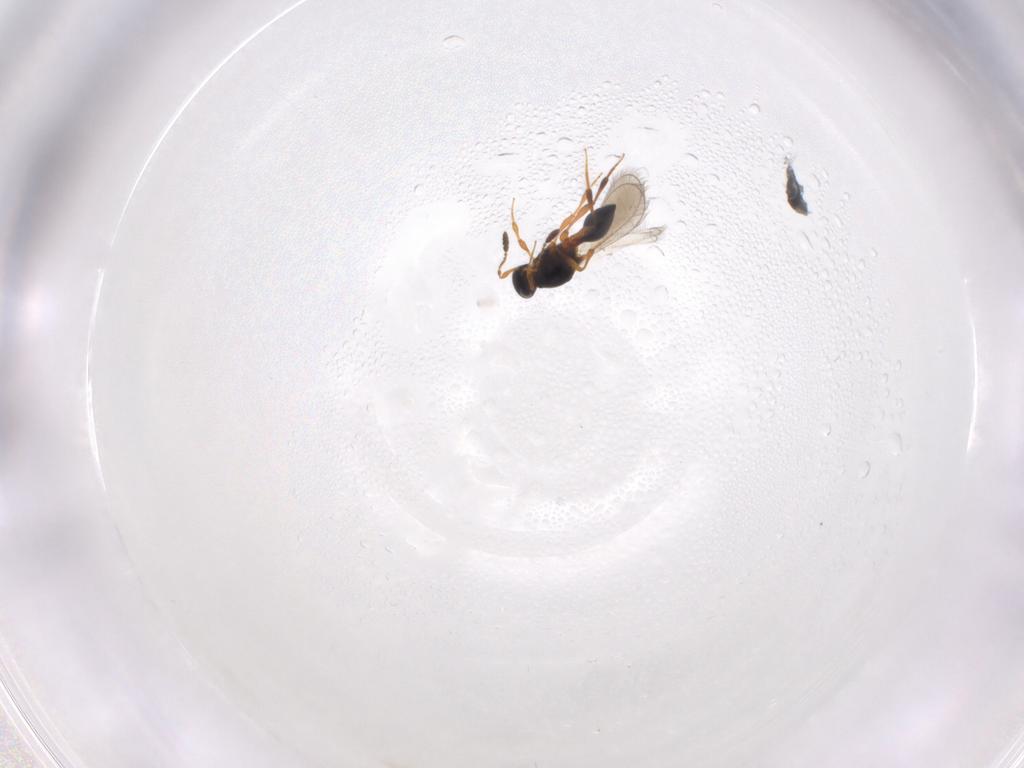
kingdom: Animalia
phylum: Arthropoda
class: Insecta
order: Hymenoptera
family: Platygastridae
